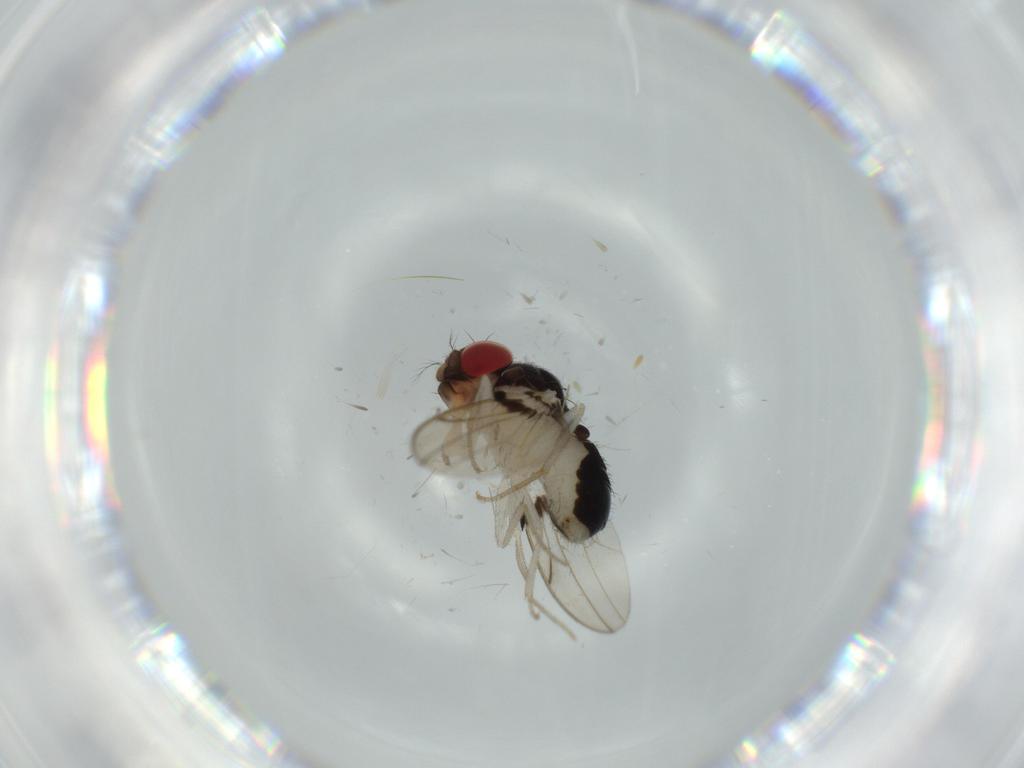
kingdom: Animalia
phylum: Arthropoda
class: Insecta
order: Diptera
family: Drosophilidae
